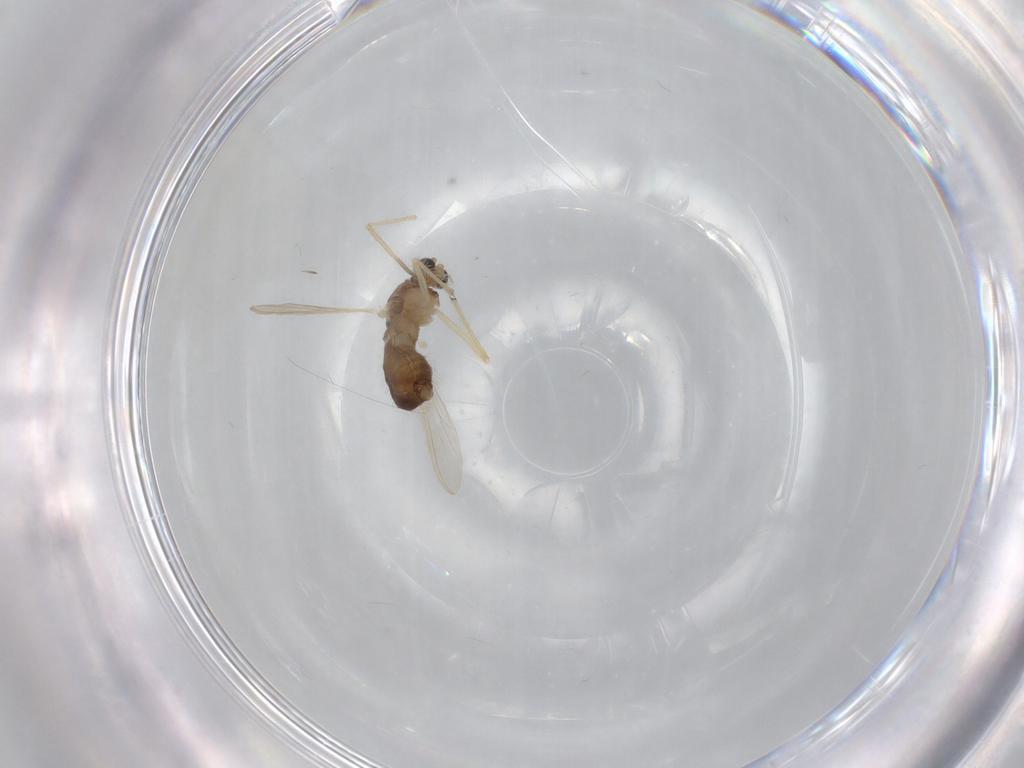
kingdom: Animalia
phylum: Arthropoda
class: Insecta
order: Diptera
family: Chironomidae
